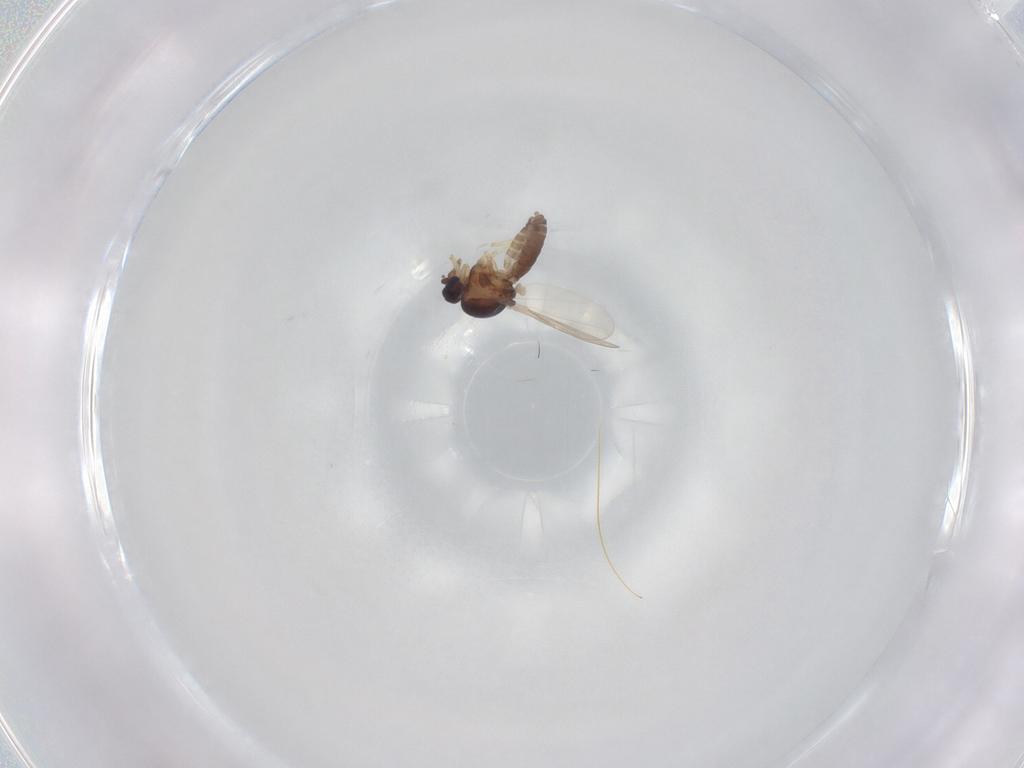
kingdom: Animalia
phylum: Arthropoda
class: Insecta
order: Diptera
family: Ceratopogonidae
